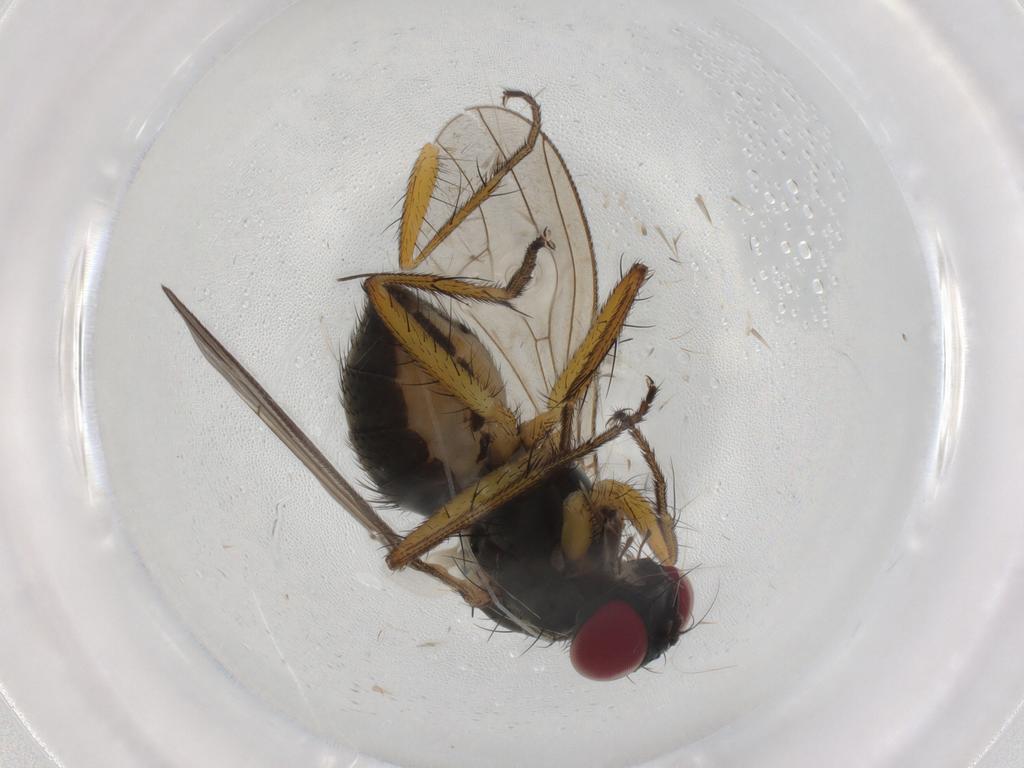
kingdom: Animalia
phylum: Arthropoda
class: Insecta
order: Diptera
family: Muscidae
